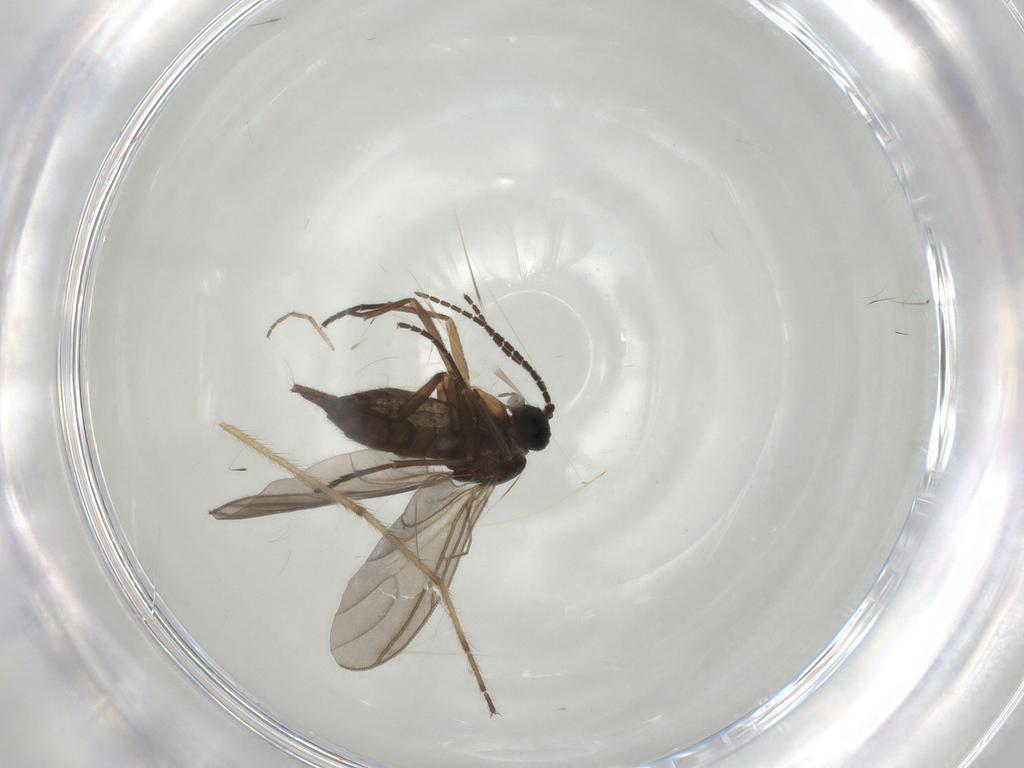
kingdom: Animalia
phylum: Arthropoda
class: Insecta
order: Diptera
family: Sciaridae
